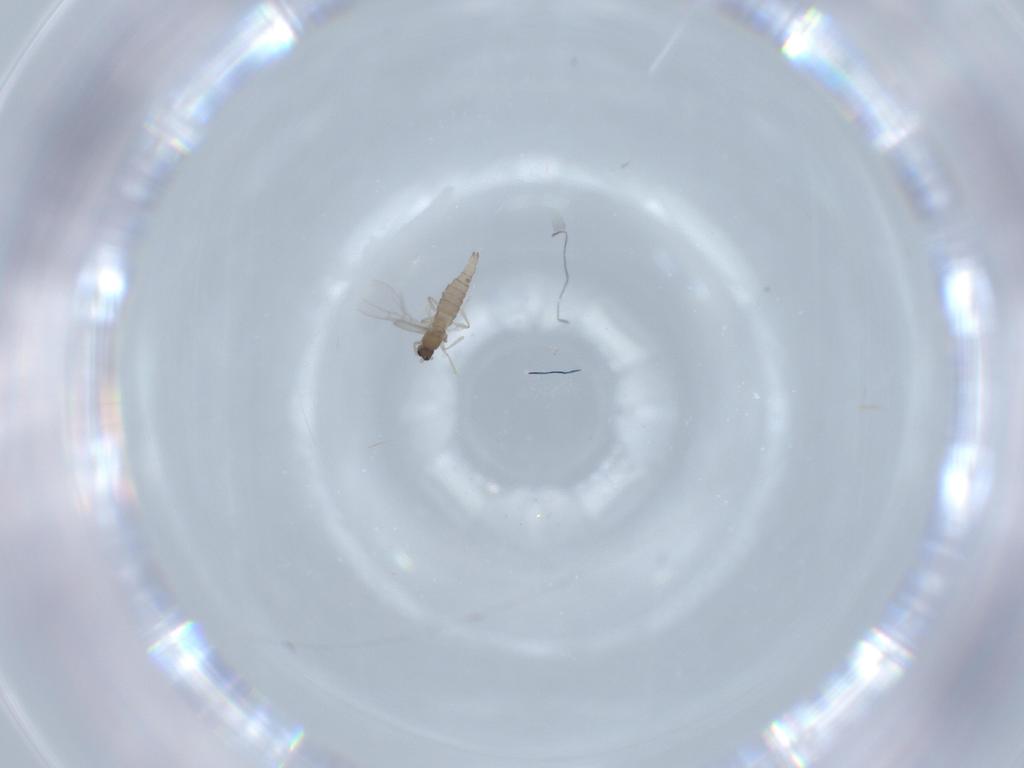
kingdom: Animalia
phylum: Arthropoda
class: Insecta
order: Diptera
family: Cecidomyiidae
